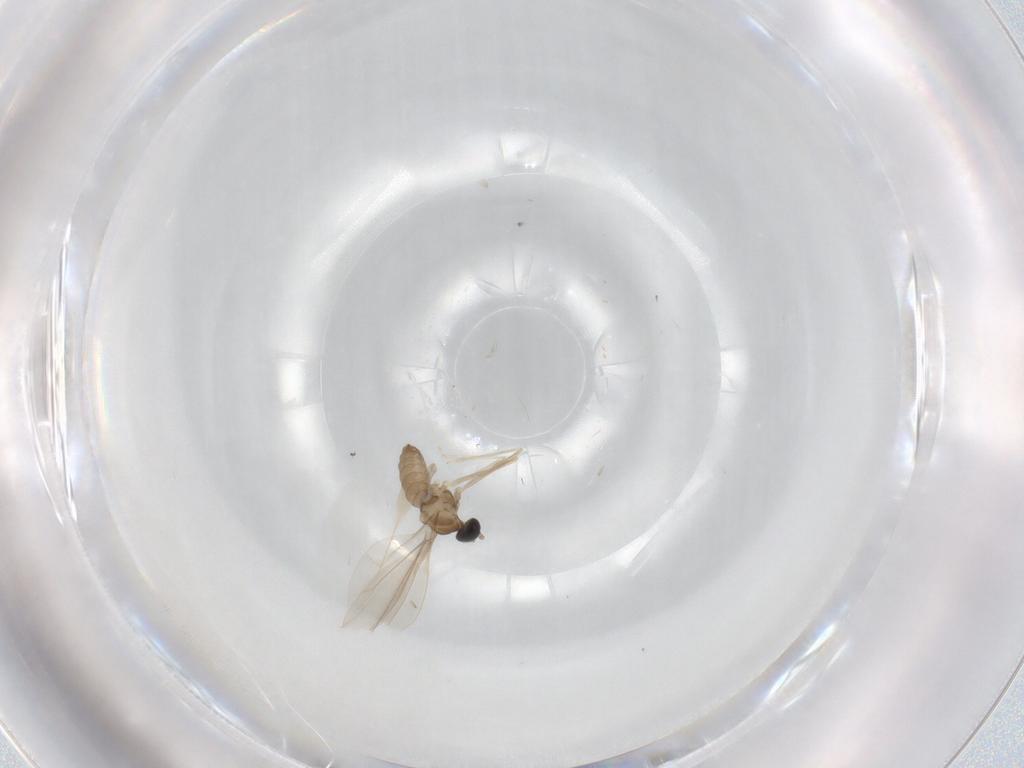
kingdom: Animalia
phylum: Arthropoda
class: Insecta
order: Diptera
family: Cecidomyiidae
